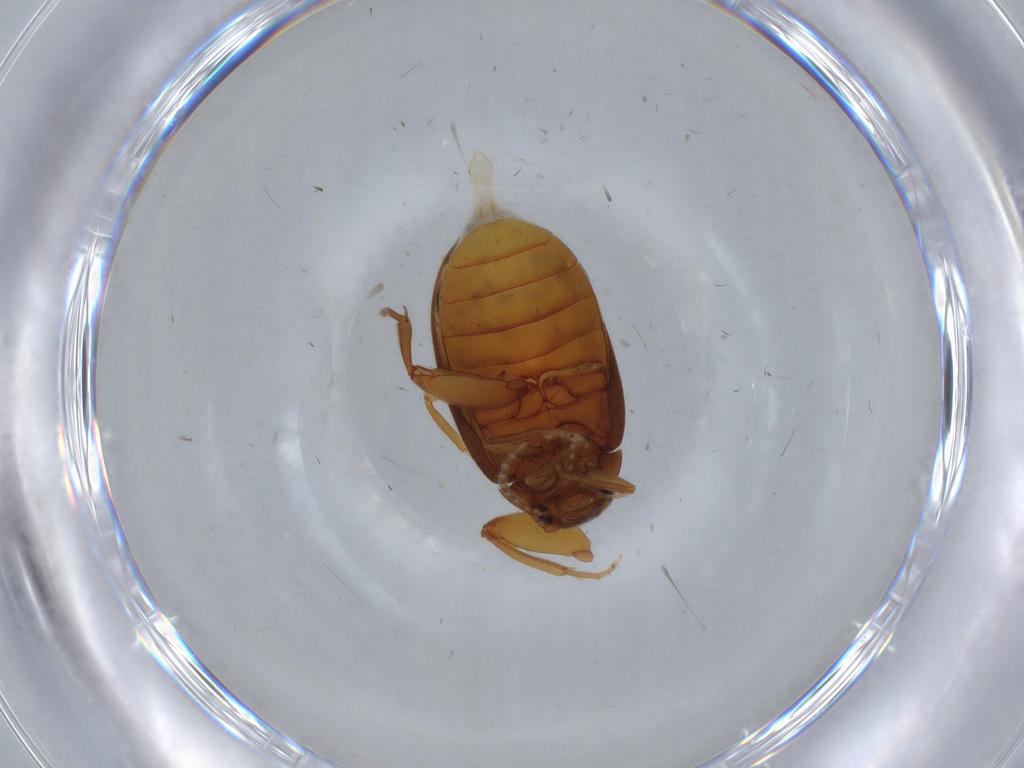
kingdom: Animalia
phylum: Arthropoda
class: Insecta
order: Coleoptera
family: Scirtidae
